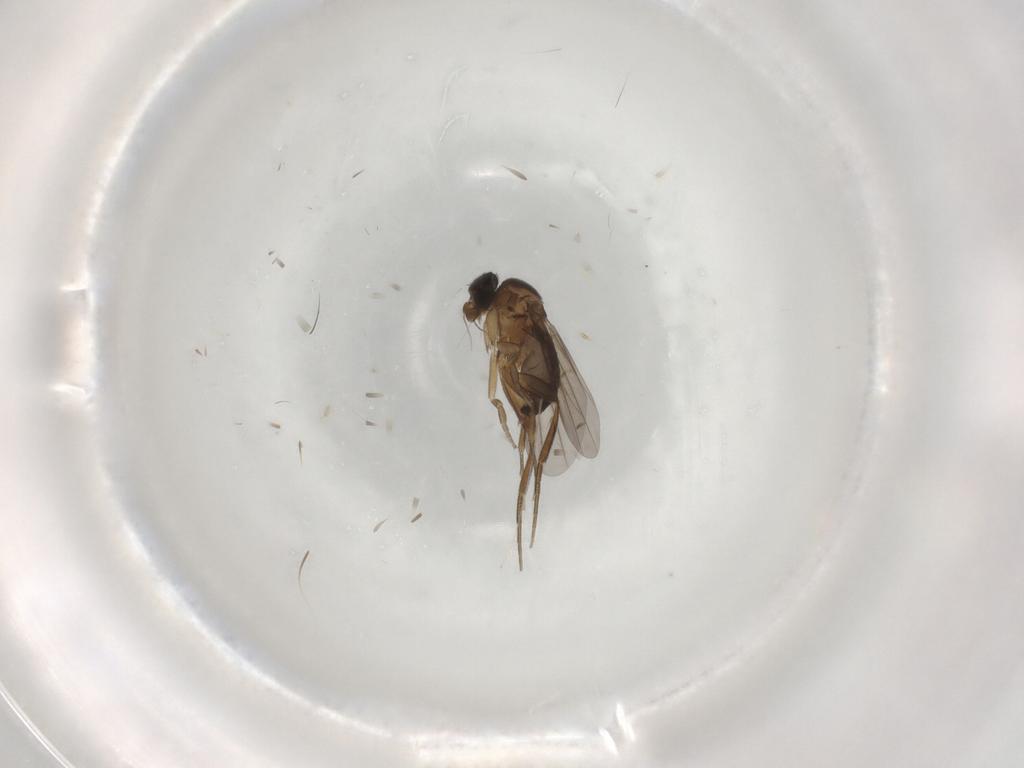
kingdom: Animalia
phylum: Arthropoda
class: Insecta
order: Diptera
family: Phoridae
